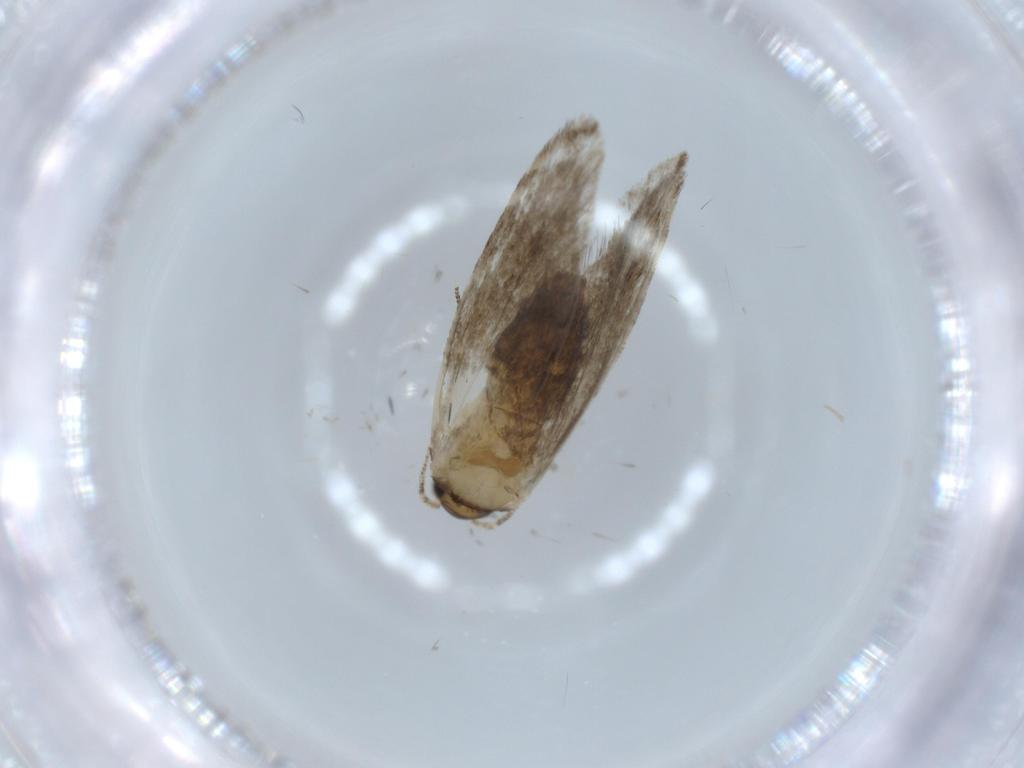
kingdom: Animalia
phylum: Arthropoda
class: Insecta
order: Lepidoptera
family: Tineidae
